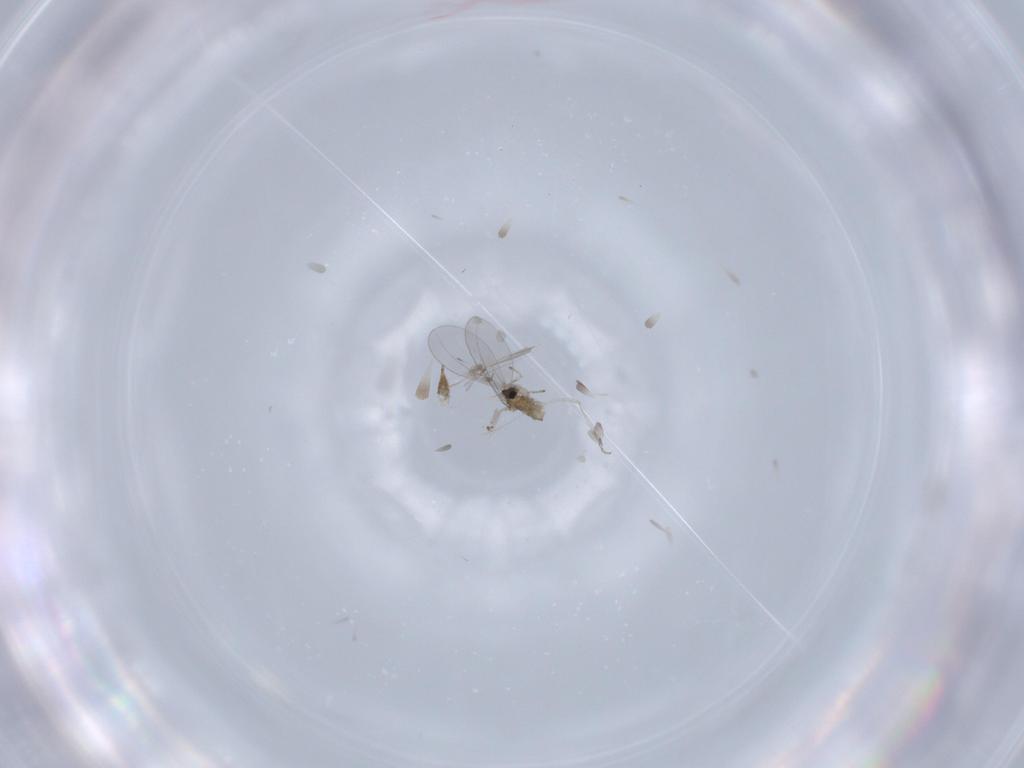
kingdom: Animalia
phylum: Arthropoda
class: Insecta
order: Diptera
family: Cecidomyiidae
